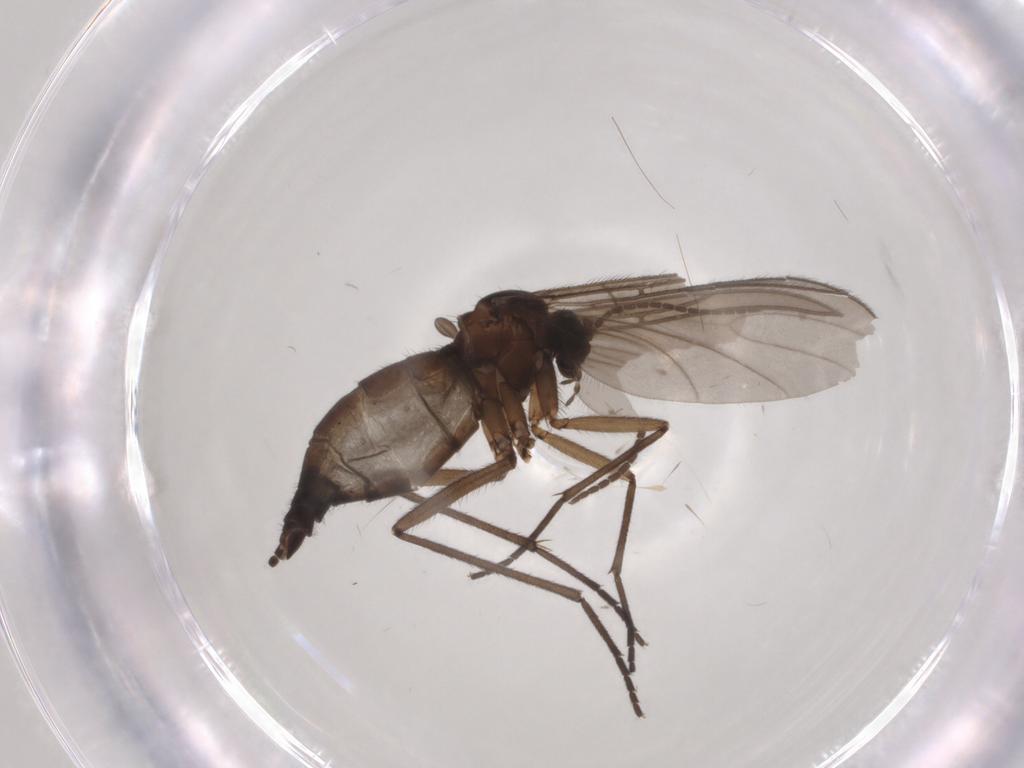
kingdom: Animalia
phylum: Arthropoda
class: Insecta
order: Diptera
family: Sciaridae
